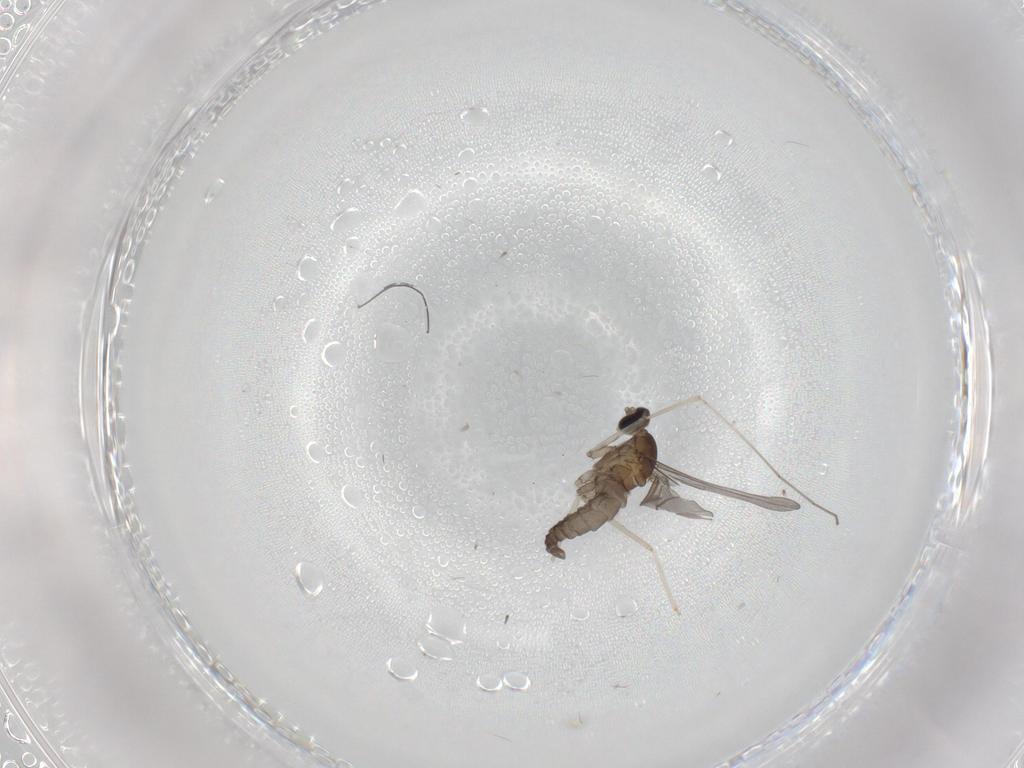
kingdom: Animalia
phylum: Arthropoda
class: Insecta
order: Diptera
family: Cecidomyiidae
